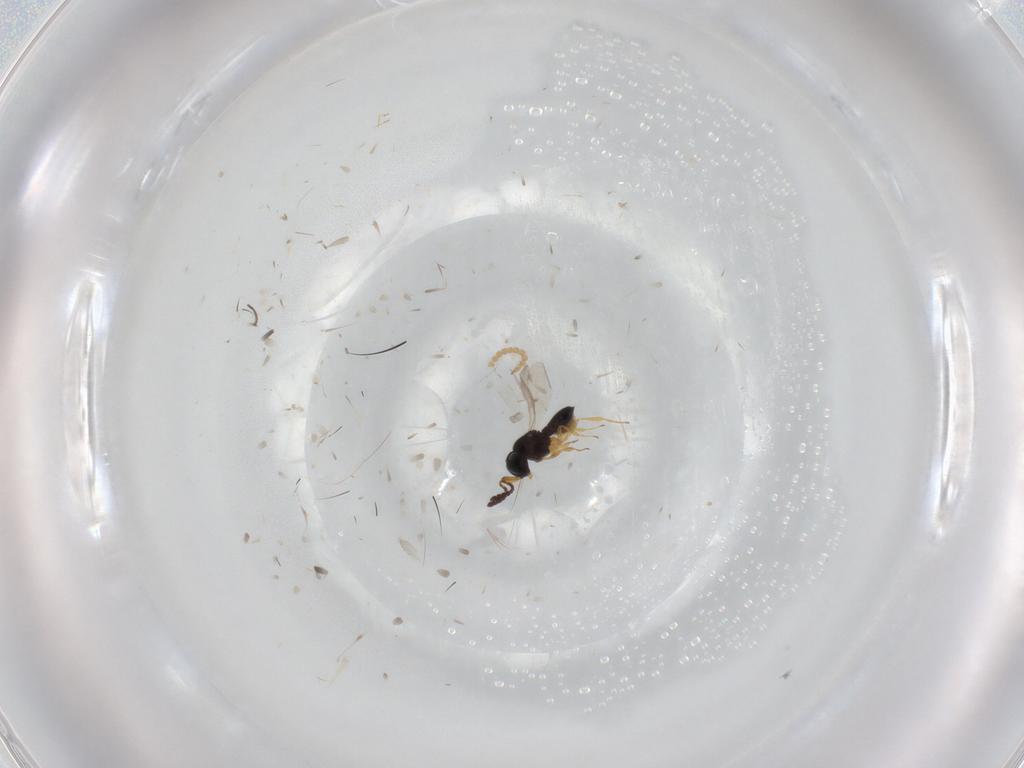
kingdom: Animalia
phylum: Arthropoda
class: Insecta
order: Hymenoptera
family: Scelionidae
